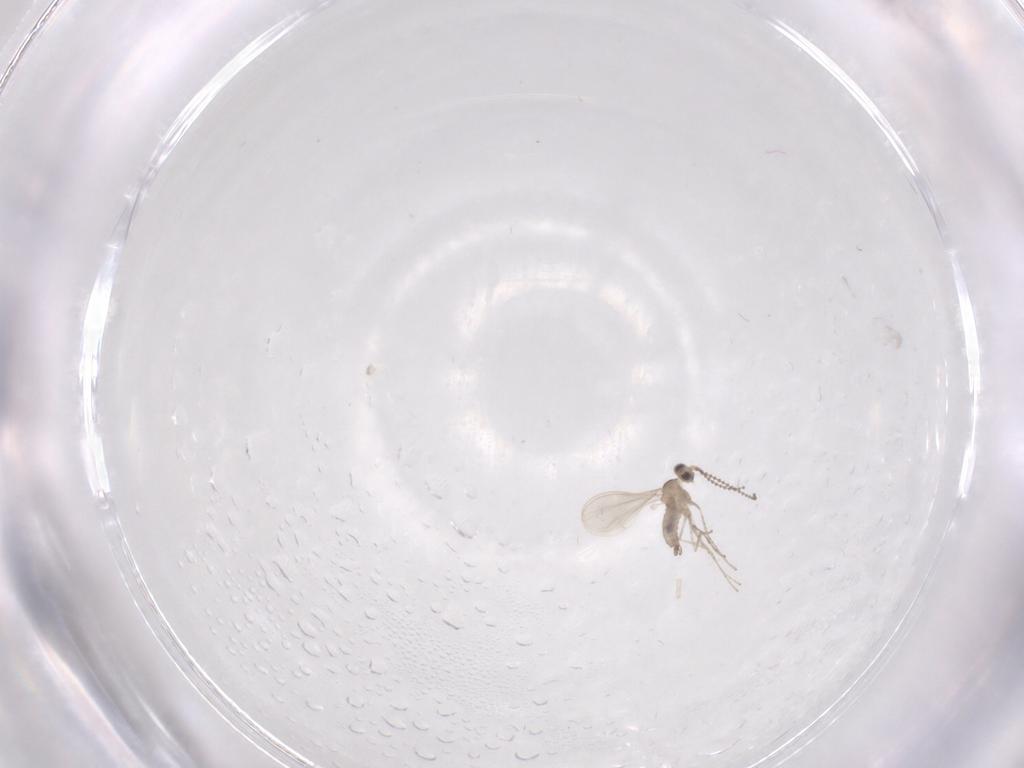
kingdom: Animalia
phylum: Arthropoda
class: Insecta
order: Diptera
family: Cecidomyiidae
